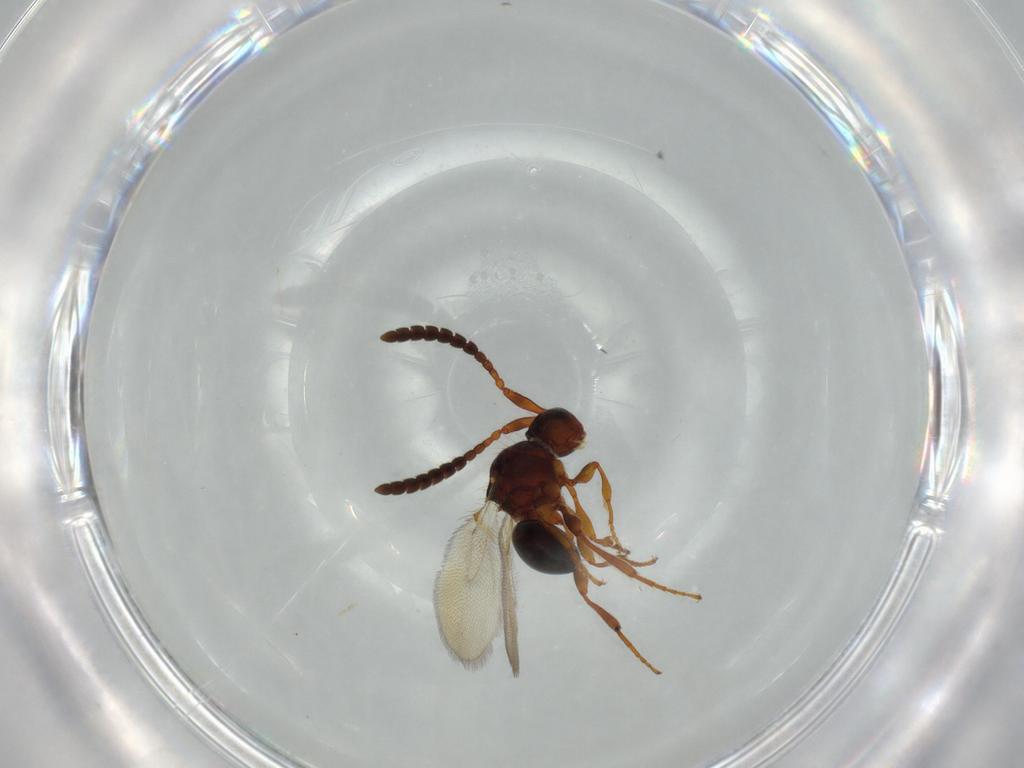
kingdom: Animalia
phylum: Arthropoda
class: Insecta
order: Hymenoptera
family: Diapriidae
